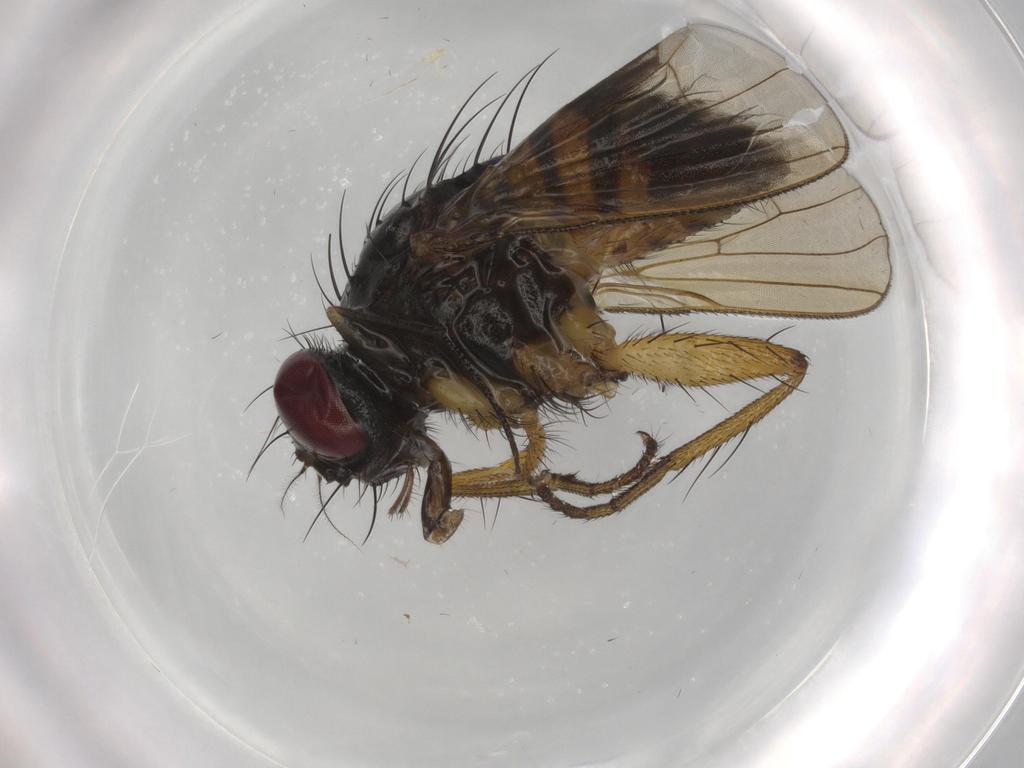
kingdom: Animalia
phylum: Arthropoda
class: Insecta
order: Diptera
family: Muscidae
